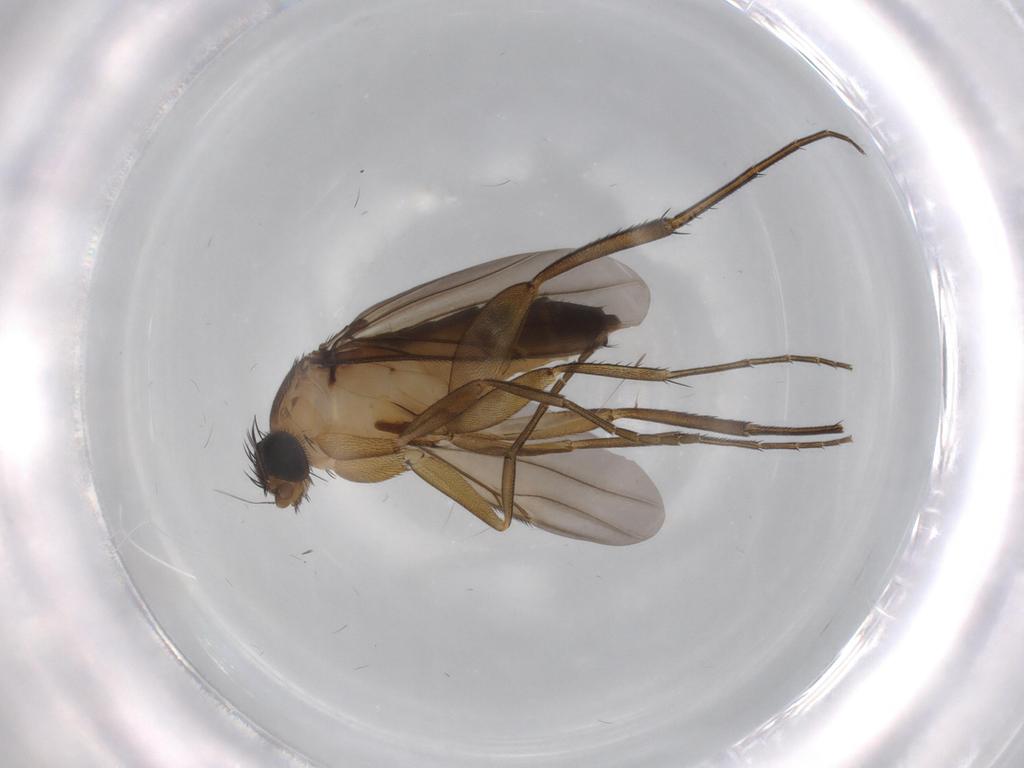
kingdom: Animalia
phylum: Arthropoda
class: Insecta
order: Diptera
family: Phoridae
